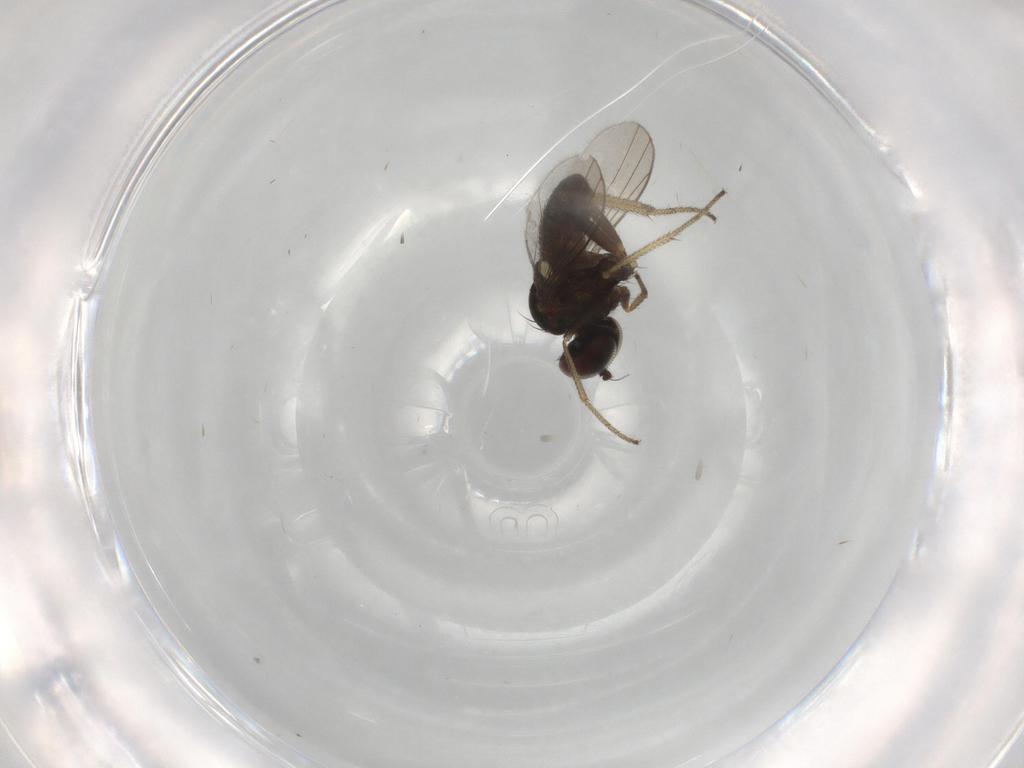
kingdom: Animalia
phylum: Arthropoda
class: Insecta
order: Diptera
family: Dolichopodidae
